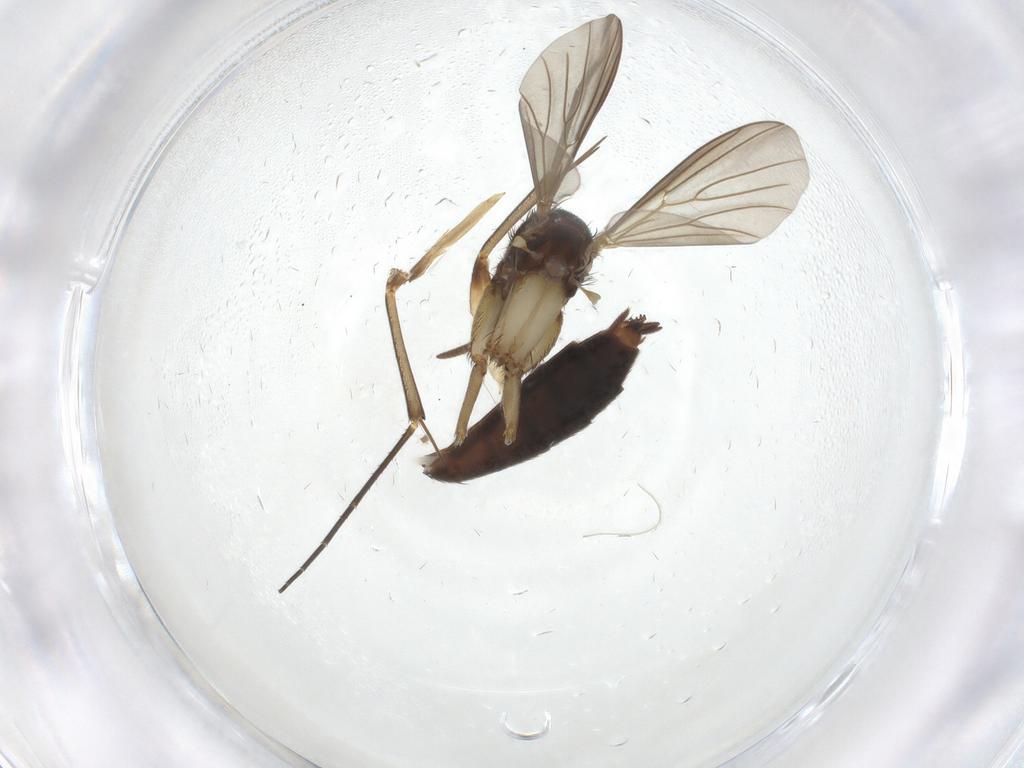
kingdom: Animalia
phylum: Arthropoda
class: Insecta
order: Diptera
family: Mycetophilidae
